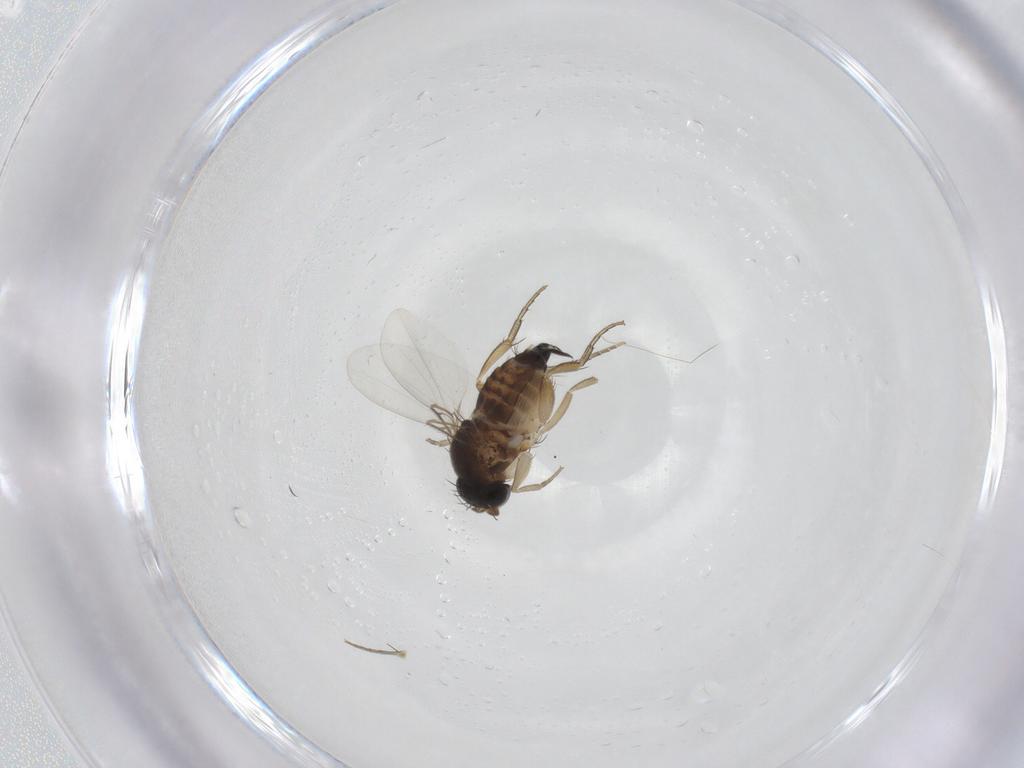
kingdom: Animalia
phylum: Arthropoda
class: Insecta
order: Diptera
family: Phoridae
